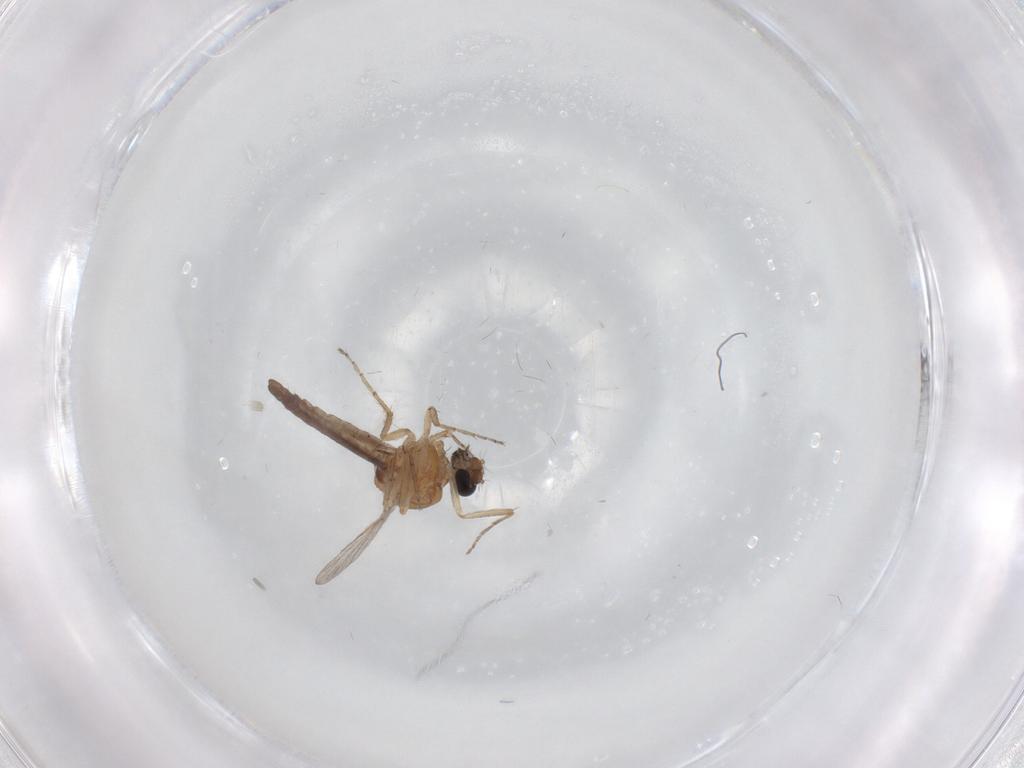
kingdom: Animalia
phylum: Arthropoda
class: Insecta
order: Diptera
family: Ceratopogonidae
